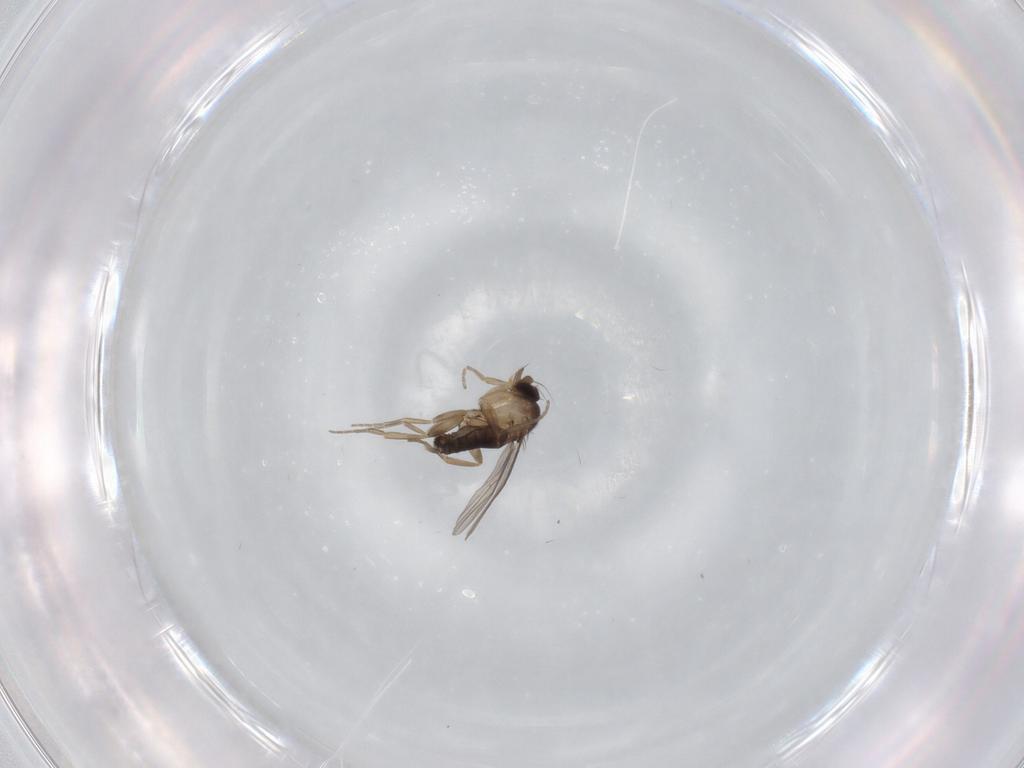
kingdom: Animalia
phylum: Arthropoda
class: Insecta
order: Diptera
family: Phoridae
